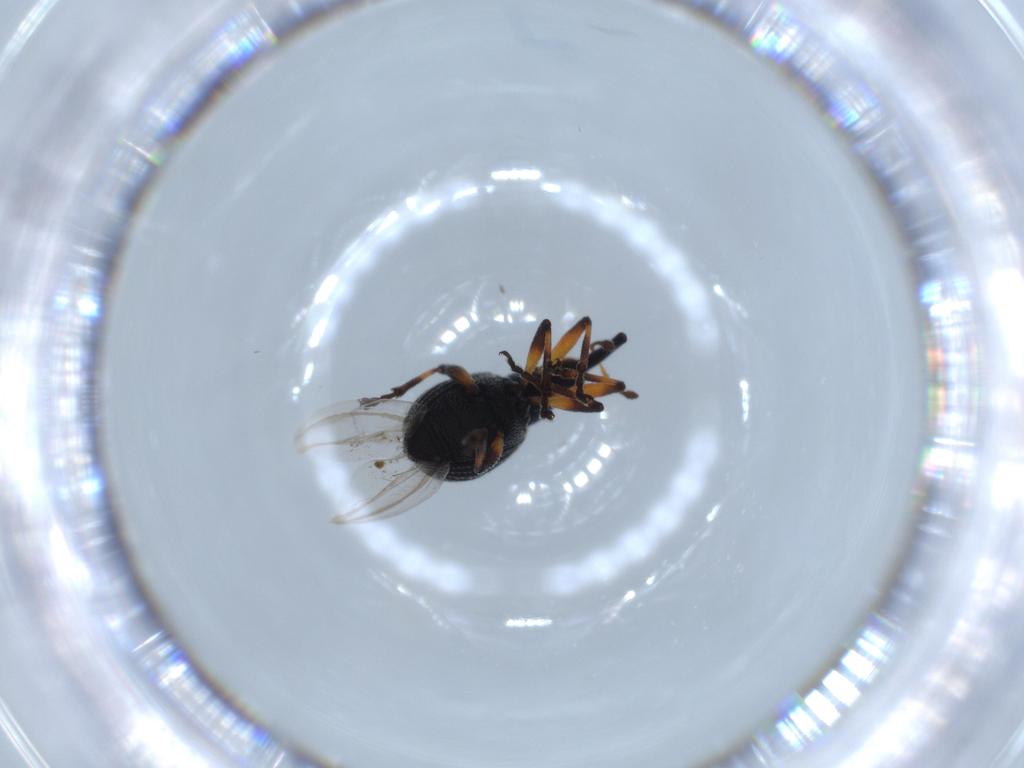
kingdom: Animalia
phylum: Arthropoda
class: Insecta
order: Coleoptera
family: Brentidae
